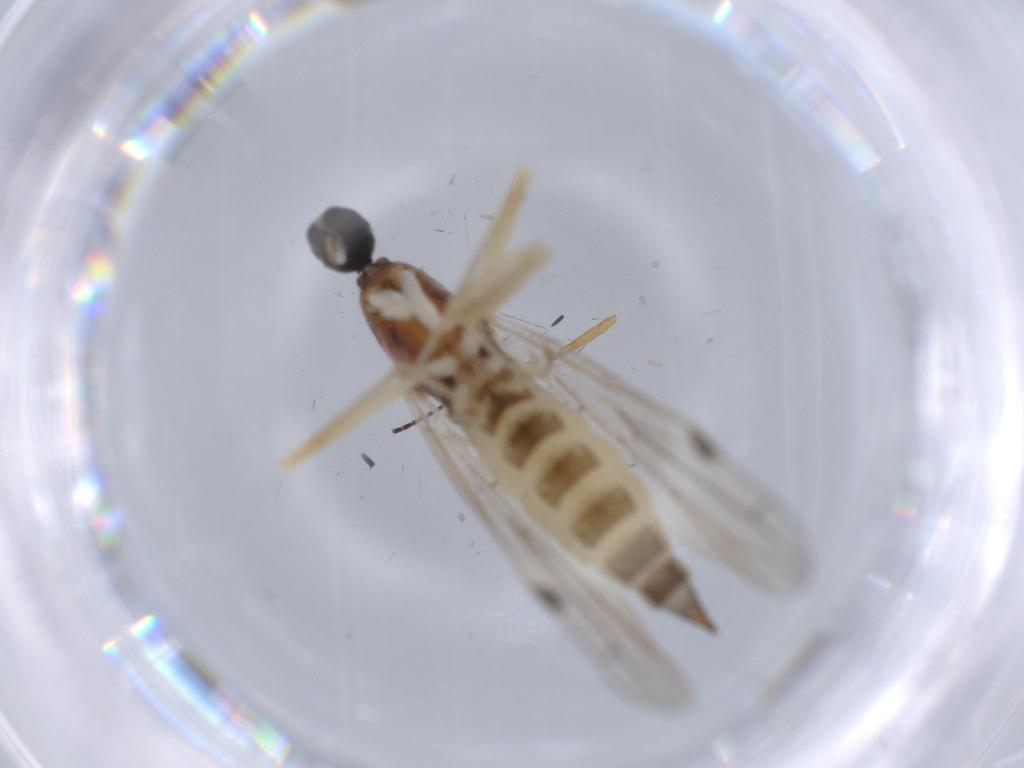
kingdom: Animalia
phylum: Arthropoda
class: Insecta
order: Diptera
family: Empididae
